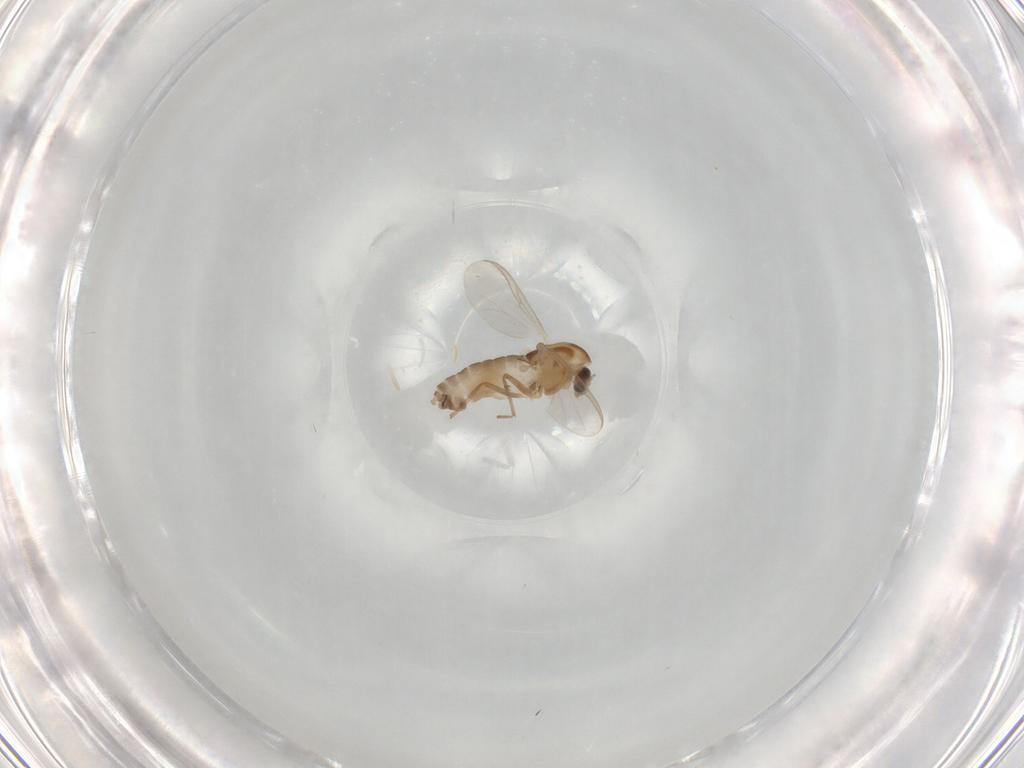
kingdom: Animalia
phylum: Arthropoda
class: Insecta
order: Diptera
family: Chironomidae
